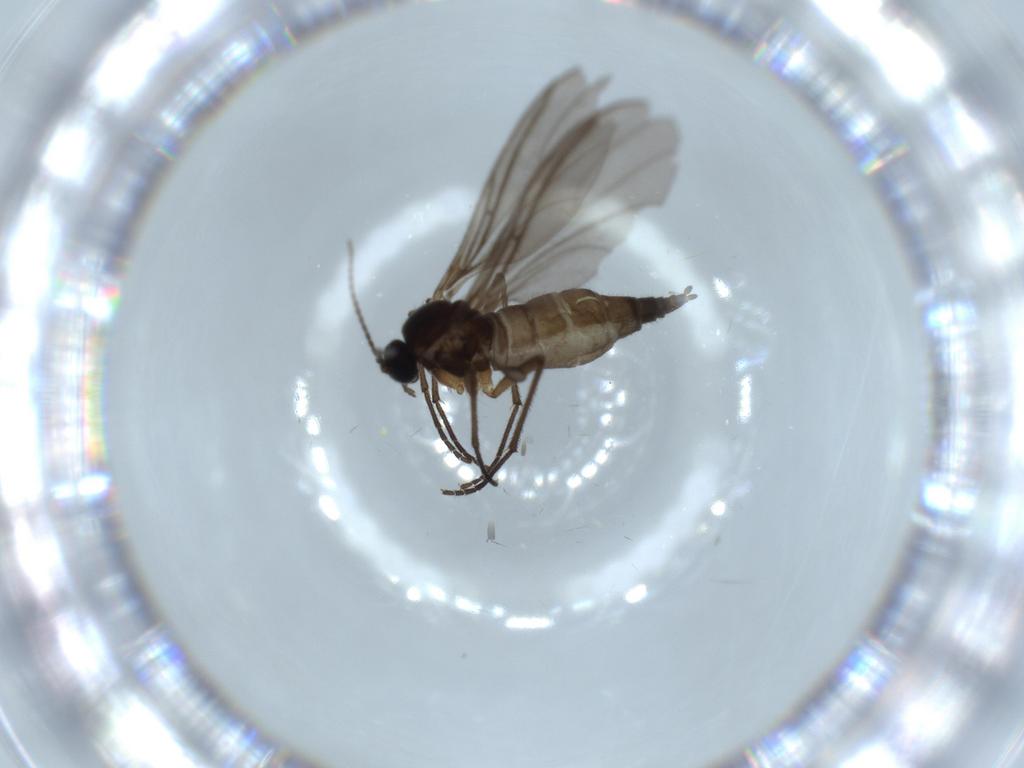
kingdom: Animalia
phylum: Arthropoda
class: Insecta
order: Diptera
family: Sciaridae
